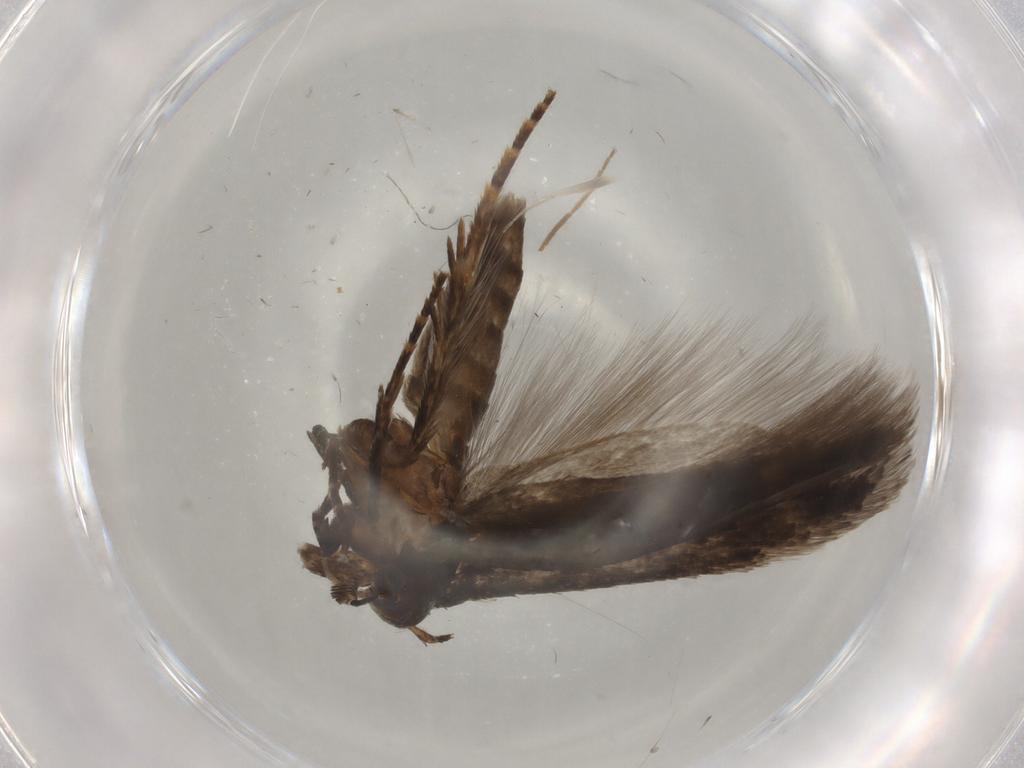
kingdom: Animalia
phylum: Arthropoda
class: Insecta
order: Lepidoptera
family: Gelechiidae
